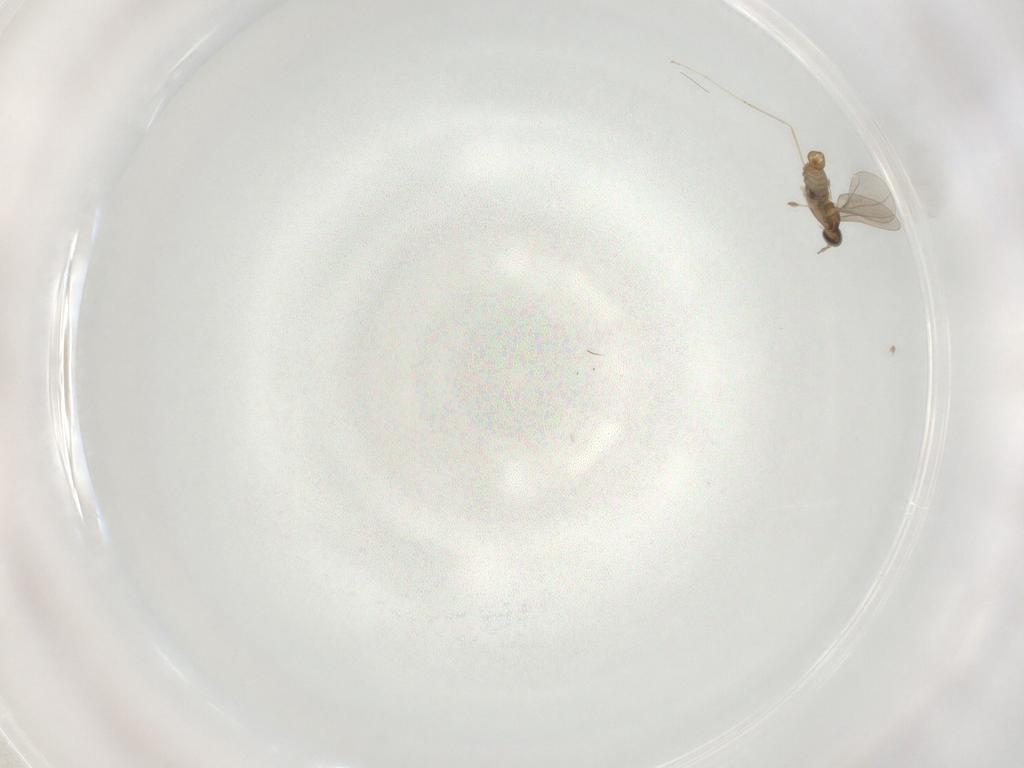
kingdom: Animalia
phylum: Arthropoda
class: Insecta
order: Diptera
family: Cecidomyiidae
